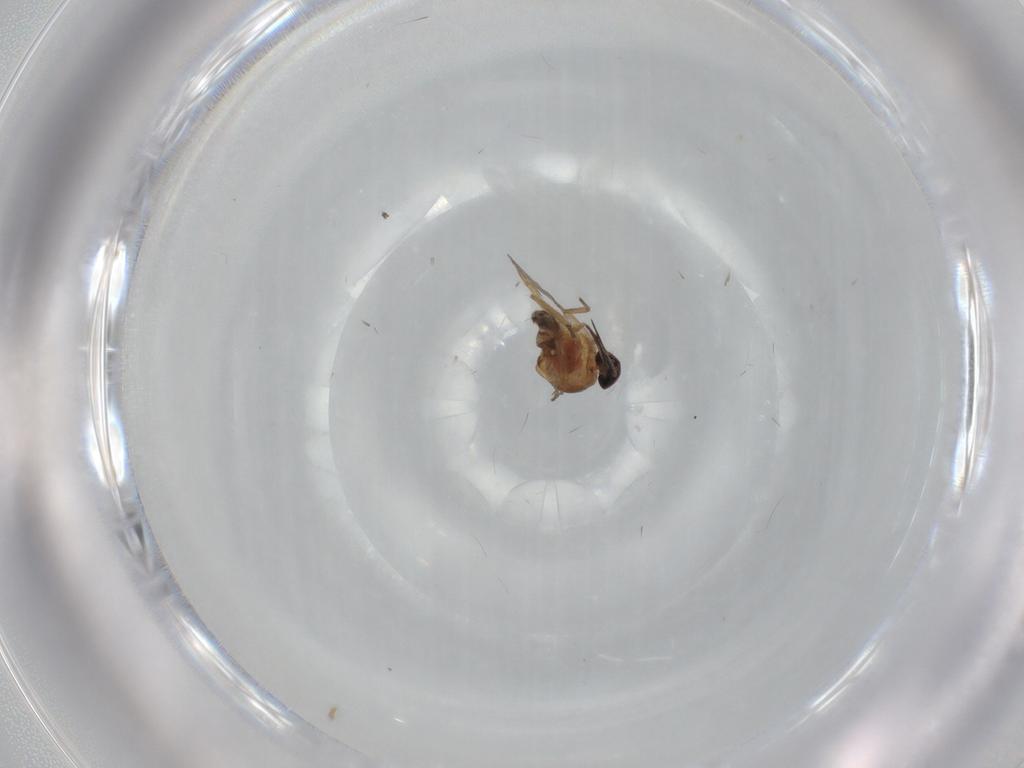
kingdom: Animalia
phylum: Arthropoda
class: Insecta
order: Diptera
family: Ceratopogonidae
